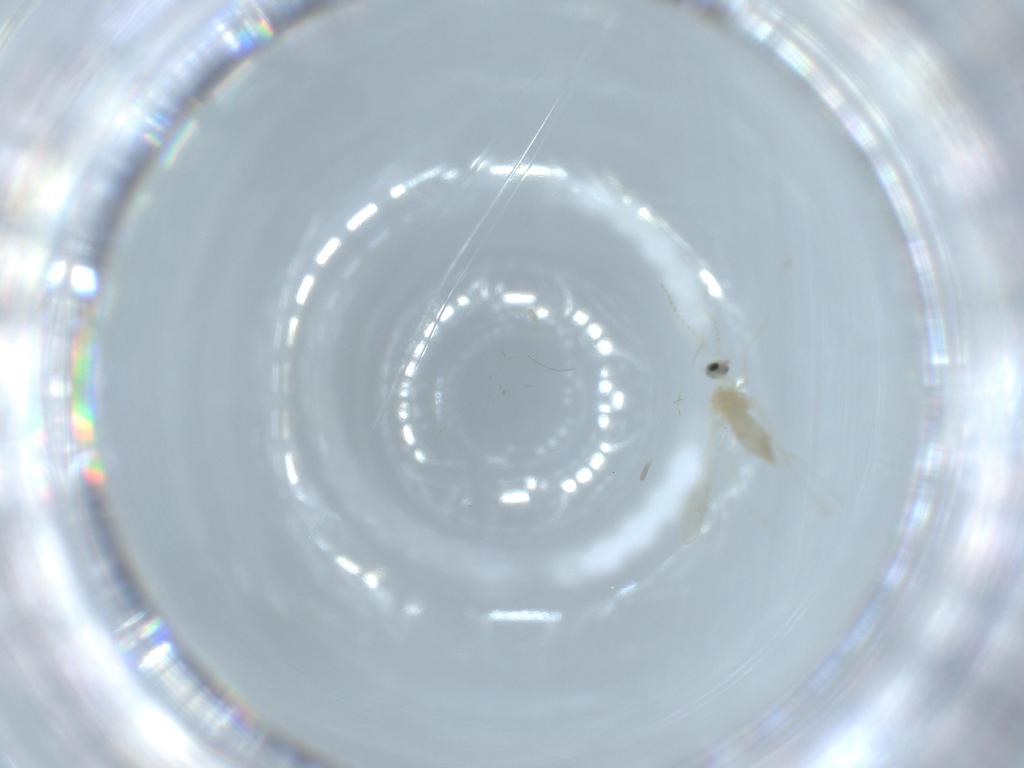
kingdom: Animalia
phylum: Arthropoda
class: Insecta
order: Diptera
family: Cecidomyiidae
